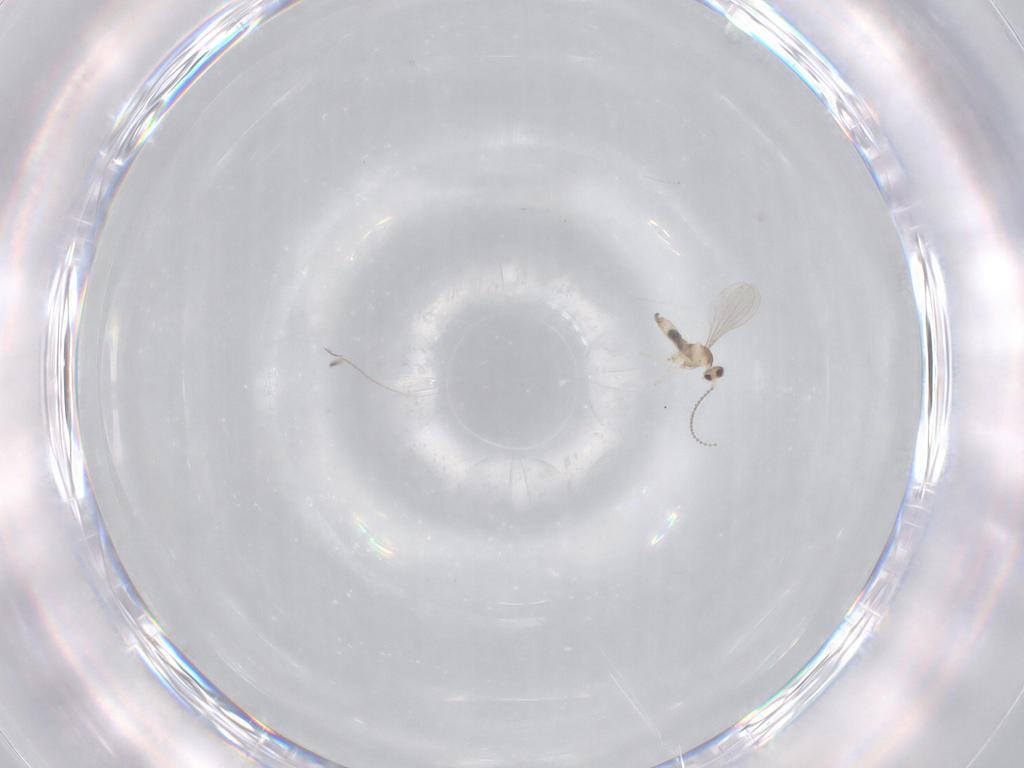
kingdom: Animalia
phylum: Arthropoda
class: Insecta
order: Diptera
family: Cecidomyiidae
